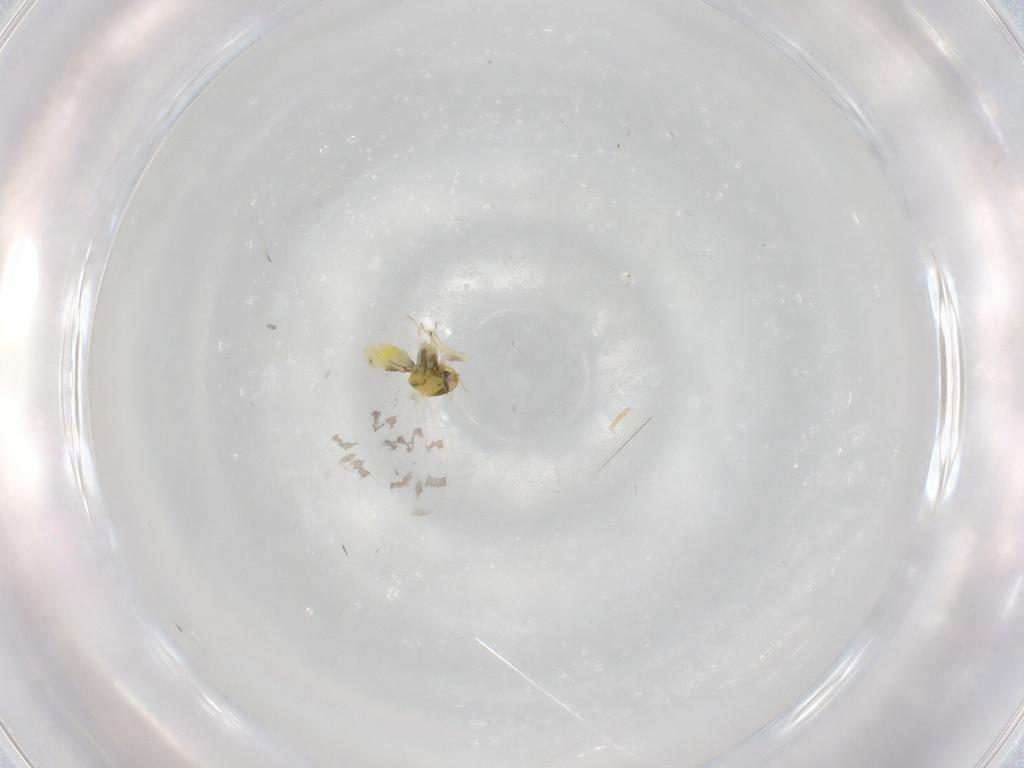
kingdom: Animalia
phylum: Arthropoda
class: Insecta
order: Hemiptera
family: Aleyrodidae
